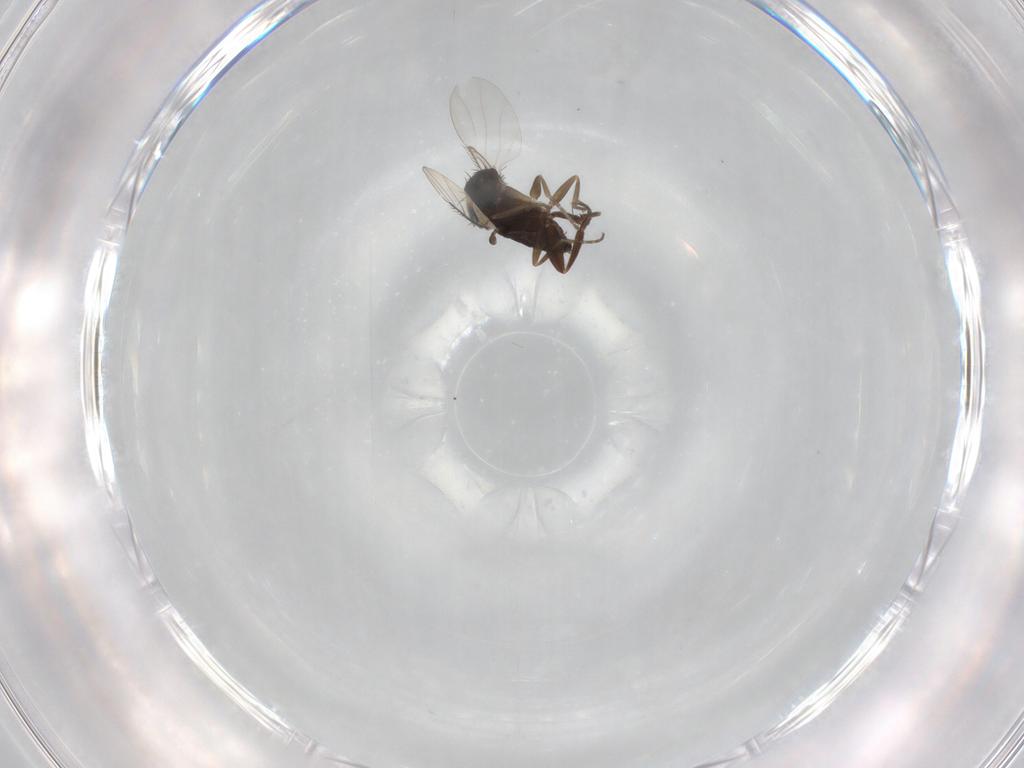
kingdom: Animalia
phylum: Arthropoda
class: Insecta
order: Diptera
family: Phoridae
